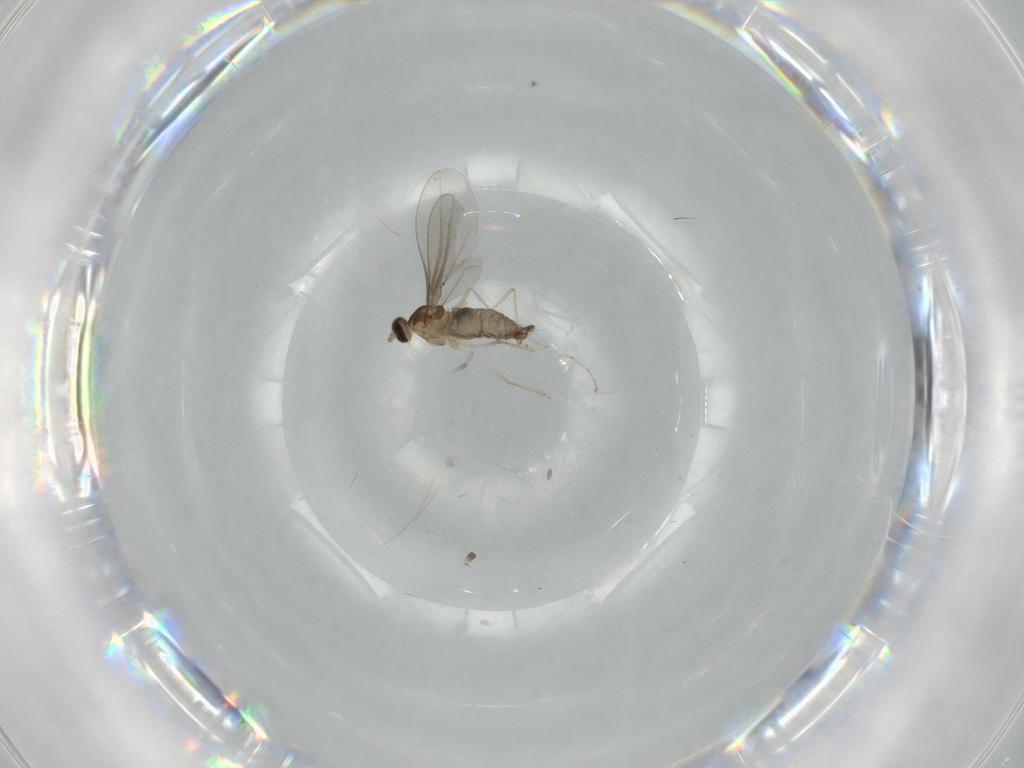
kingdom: Animalia
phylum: Arthropoda
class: Insecta
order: Diptera
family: Cecidomyiidae
